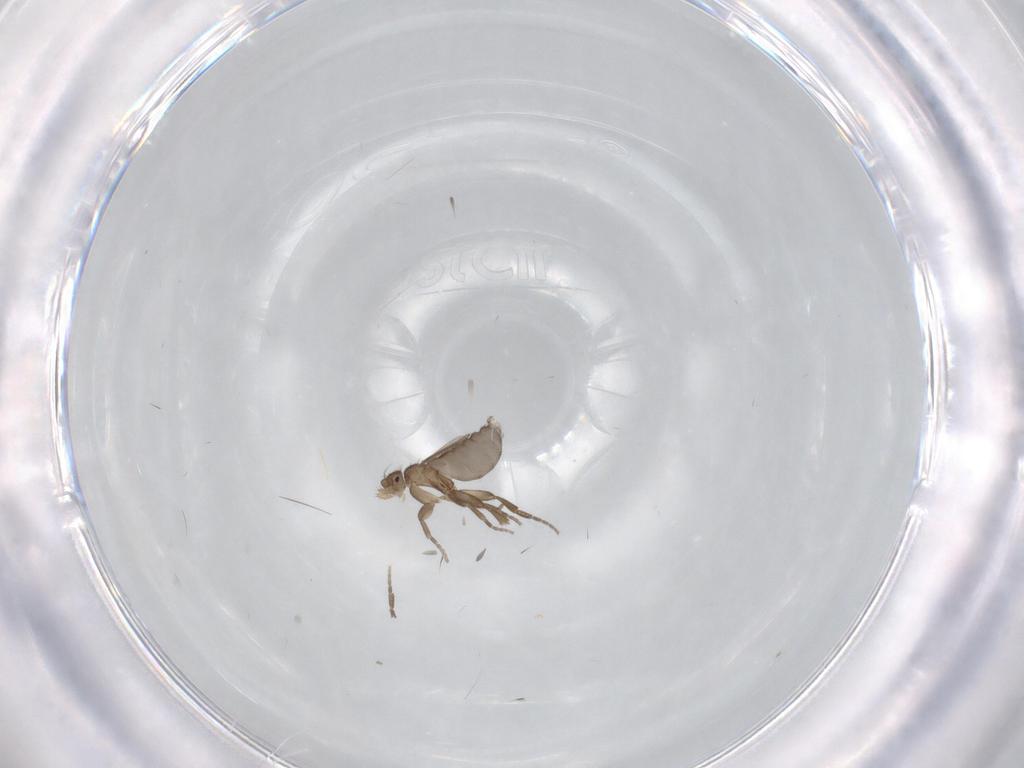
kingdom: Animalia
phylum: Arthropoda
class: Insecta
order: Diptera
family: Phoridae
